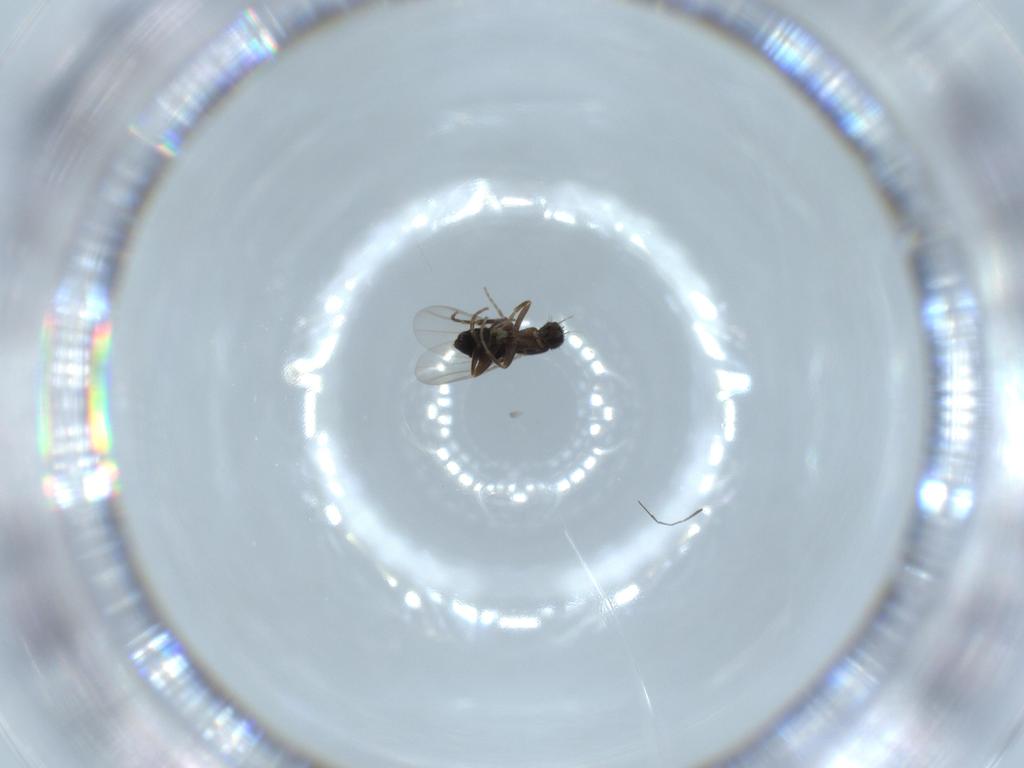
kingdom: Animalia
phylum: Arthropoda
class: Insecta
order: Diptera
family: Phoridae
